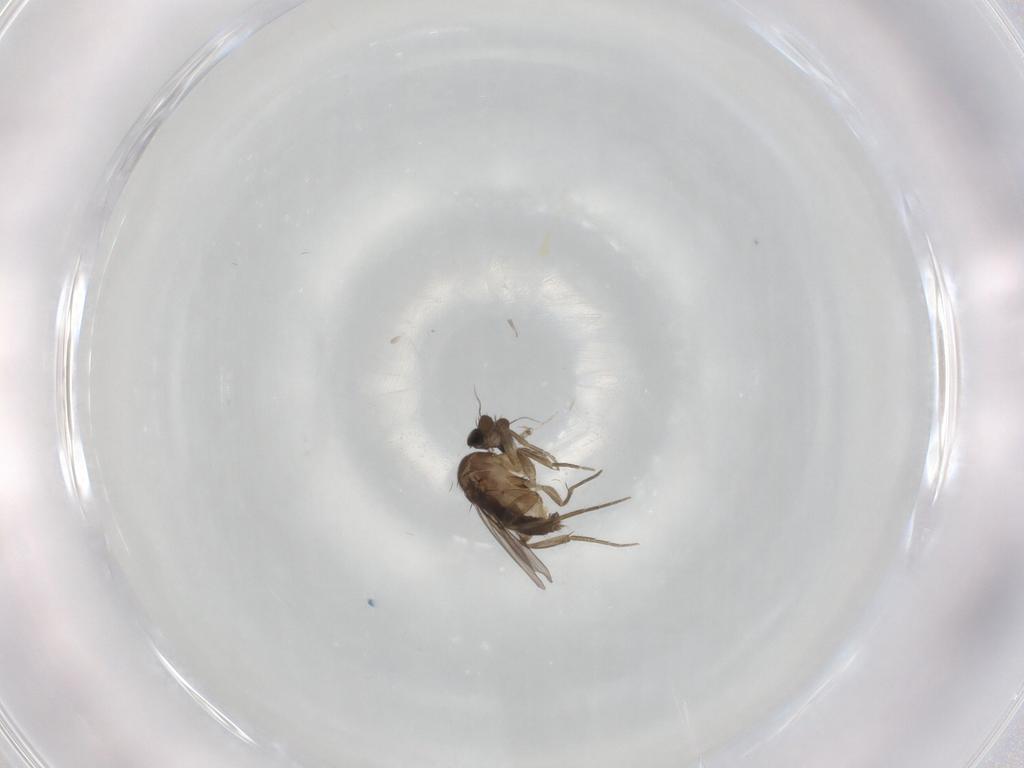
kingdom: Animalia
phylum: Arthropoda
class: Insecta
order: Diptera
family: Phoridae
